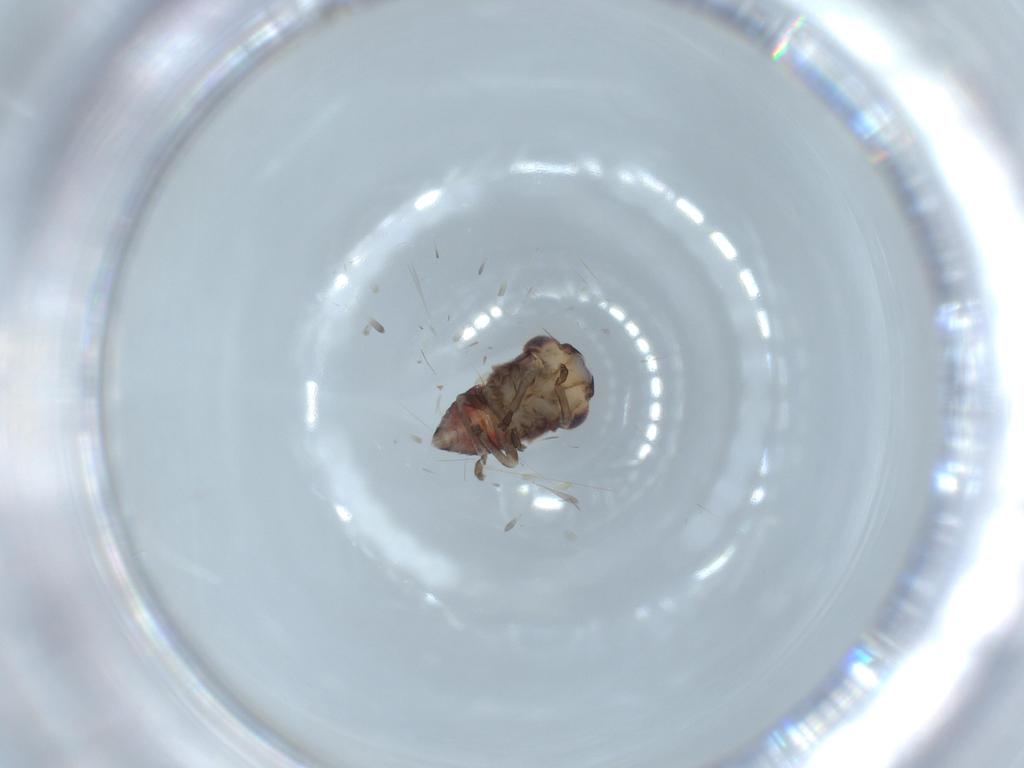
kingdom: Animalia
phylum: Arthropoda
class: Insecta
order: Hemiptera
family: Cicadellidae
